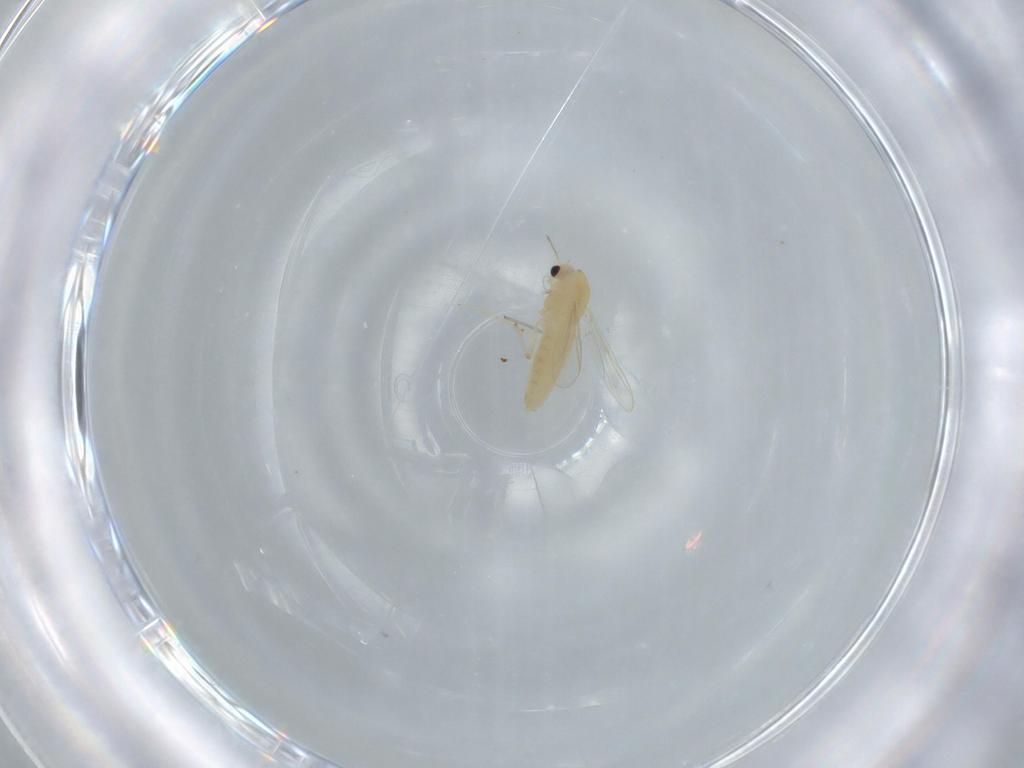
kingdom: Animalia
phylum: Arthropoda
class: Insecta
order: Diptera
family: Chironomidae
